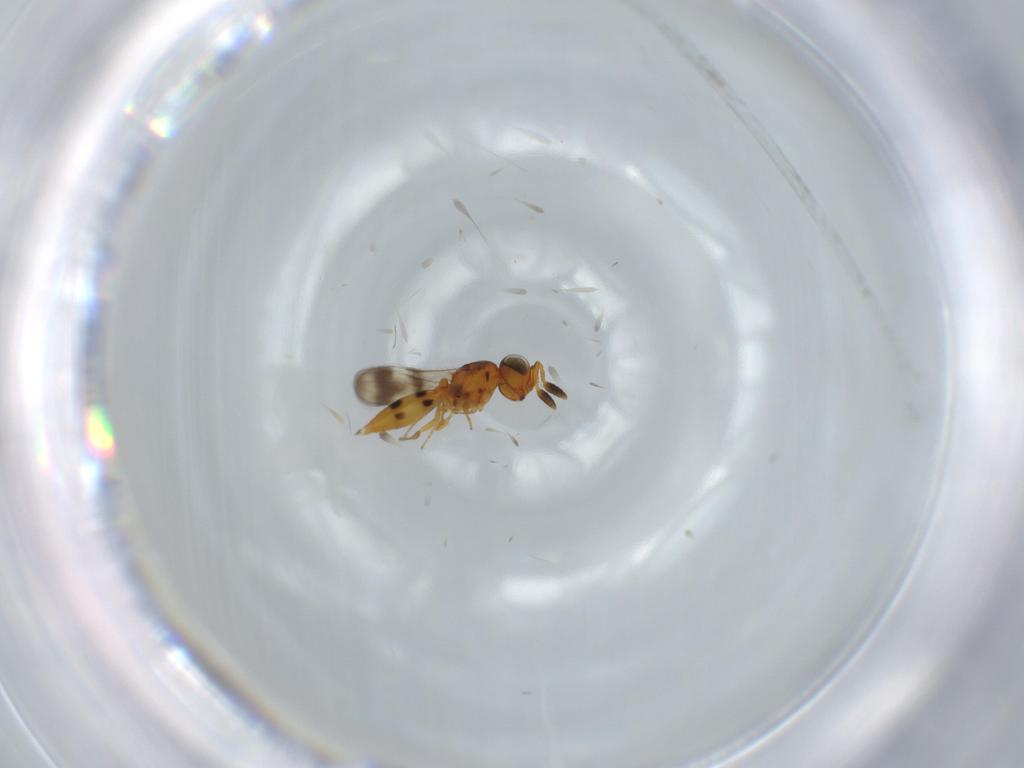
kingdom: Animalia
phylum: Arthropoda
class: Insecta
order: Hymenoptera
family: Scelionidae
